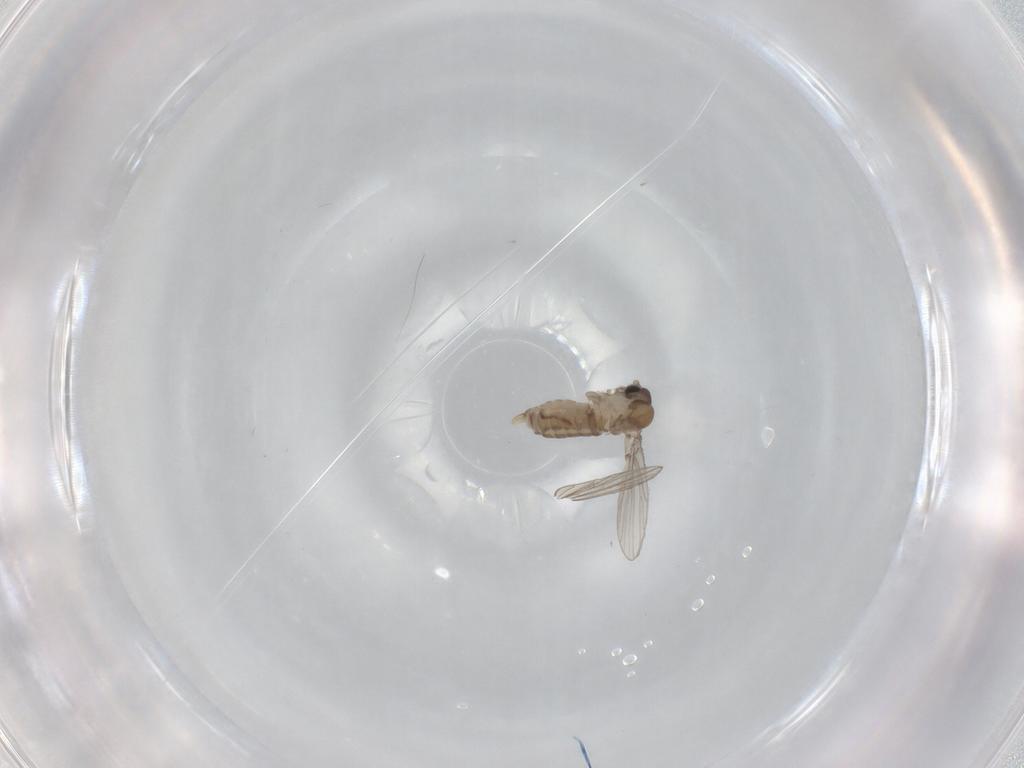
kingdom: Animalia
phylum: Arthropoda
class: Insecta
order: Diptera
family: Psychodidae
